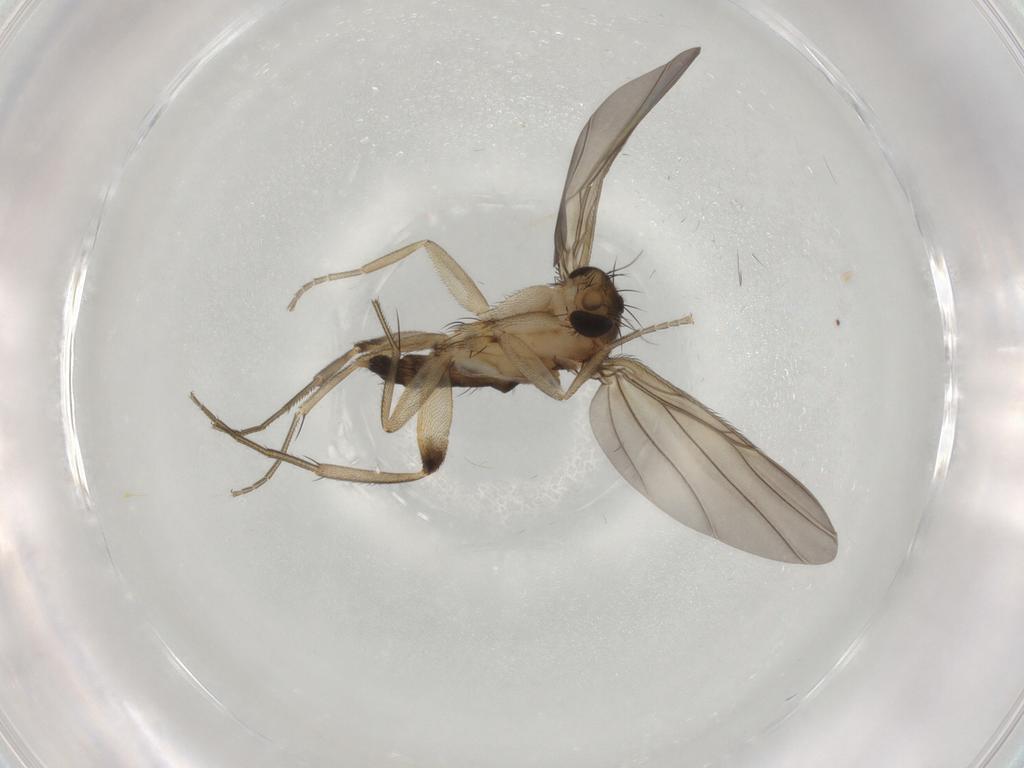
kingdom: Animalia
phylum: Arthropoda
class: Insecta
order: Diptera
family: Phoridae
